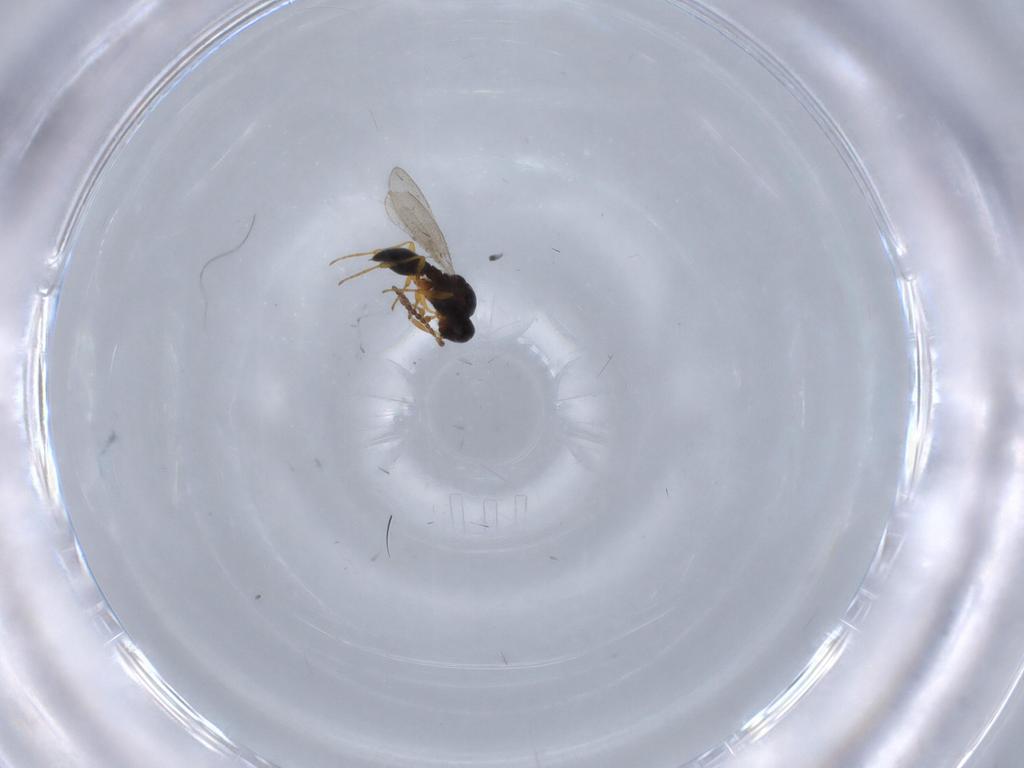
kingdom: Animalia
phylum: Arthropoda
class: Insecta
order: Diptera
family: Mythicomyiidae
